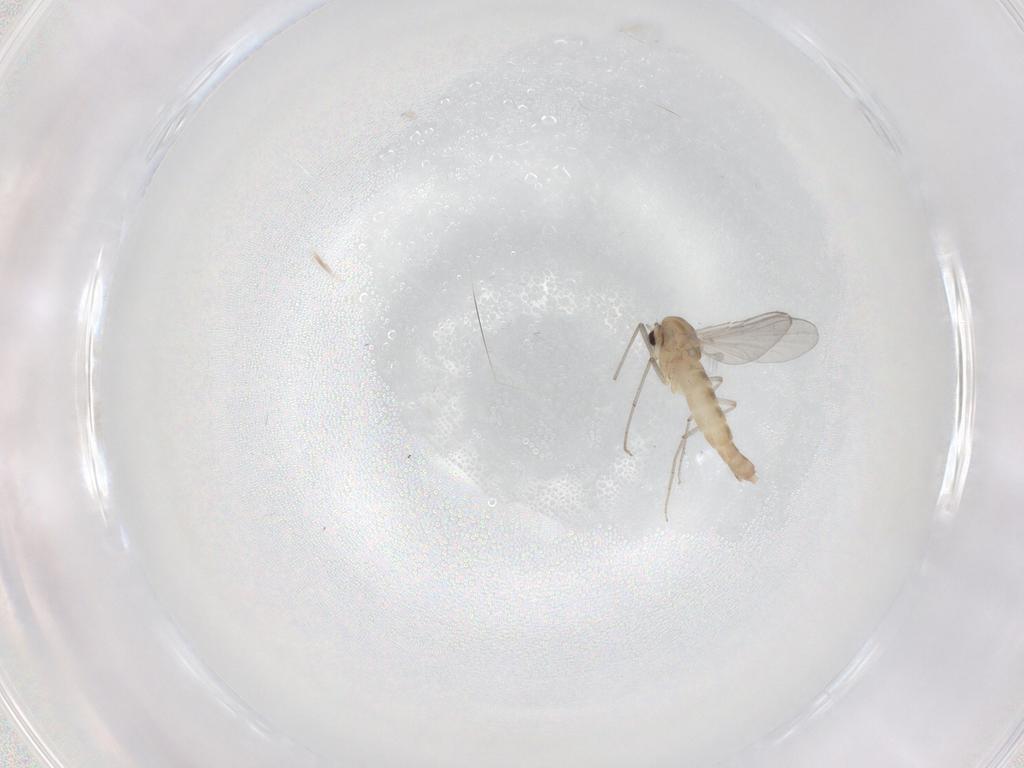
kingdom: Animalia
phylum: Arthropoda
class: Insecta
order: Diptera
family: Chironomidae
